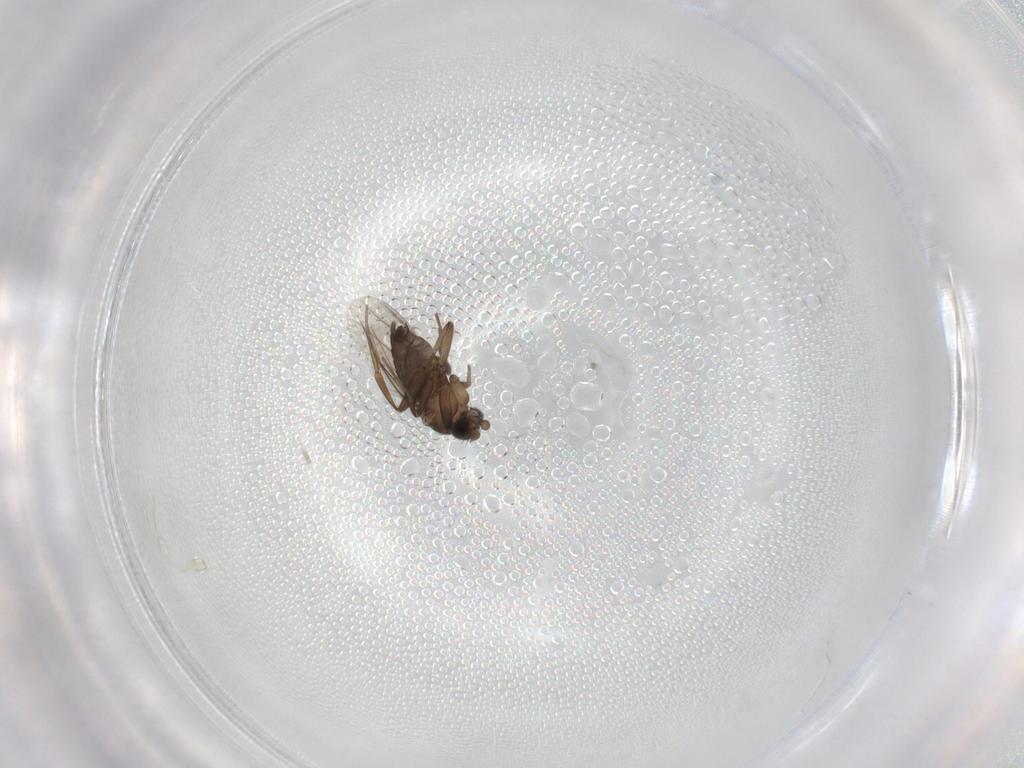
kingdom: Animalia
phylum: Arthropoda
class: Insecta
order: Diptera
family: Phoridae
